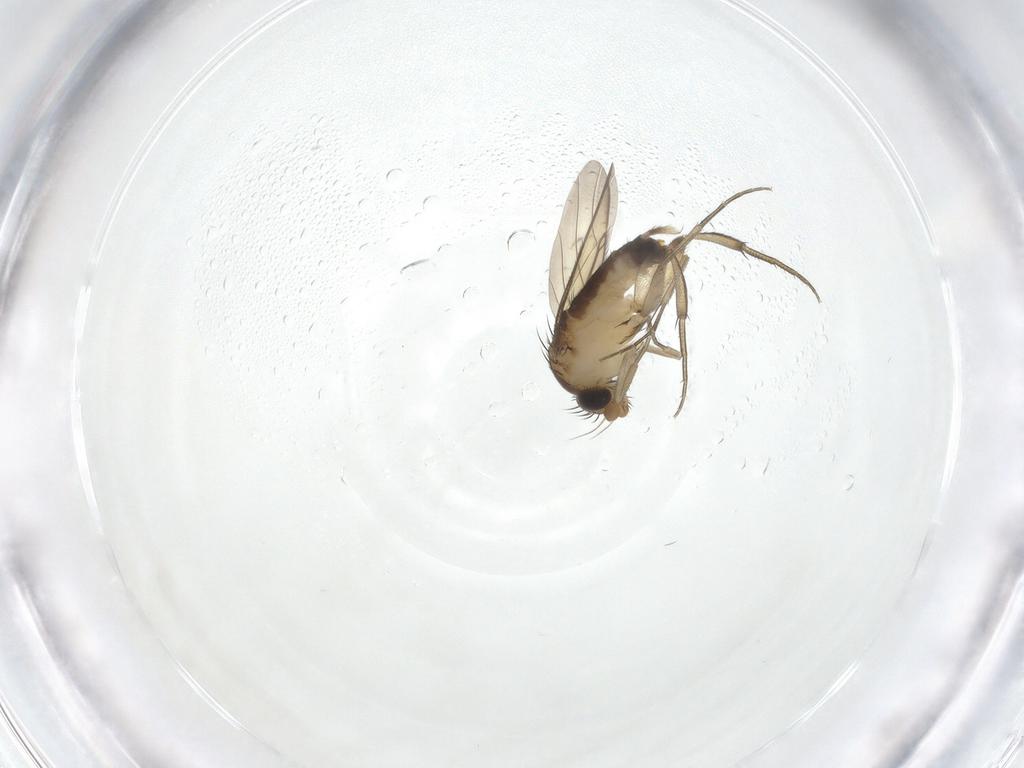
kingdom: Animalia
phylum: Arthropoda
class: Insecta
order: Diptera
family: Phoridae
